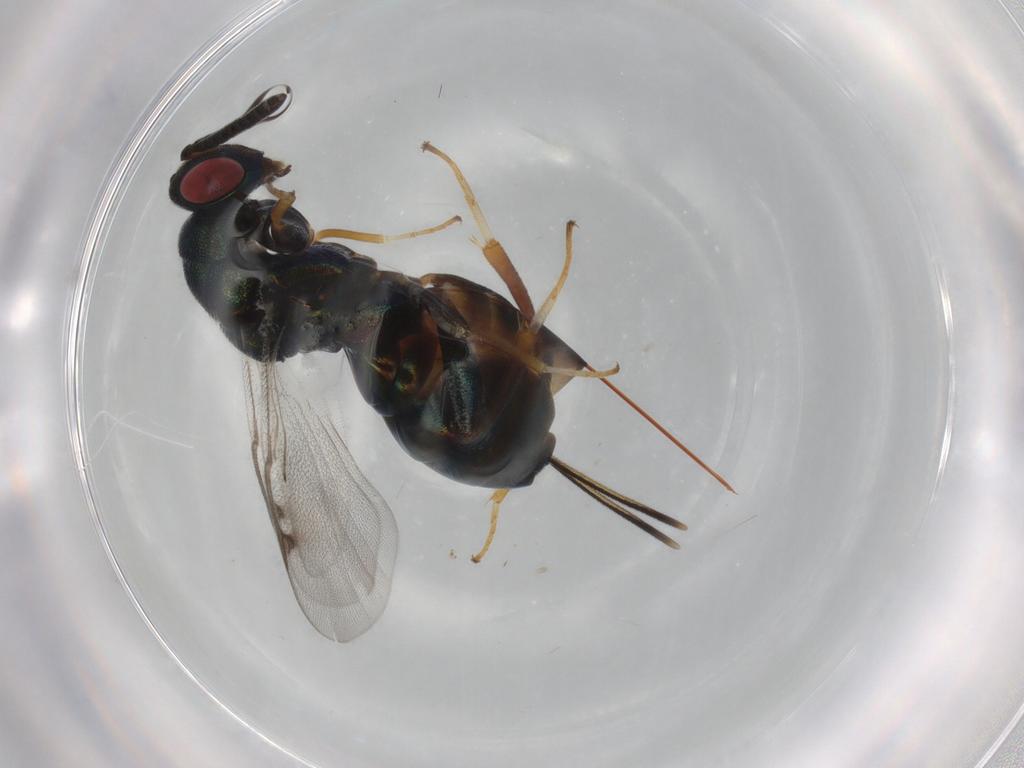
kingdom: Animalia
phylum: Arthropoda
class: Insecta
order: Hymenoptera
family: Torymidae
